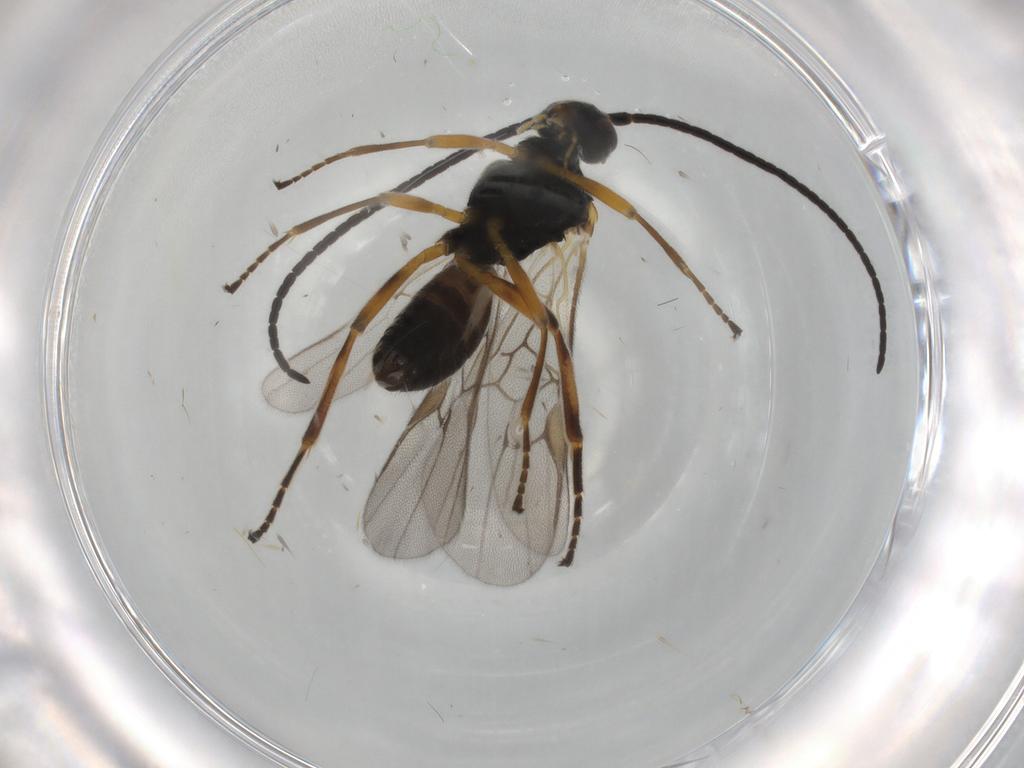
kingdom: Animalia
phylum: Arthropoda
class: Insecta
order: Hymenoptera
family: Braconidae
